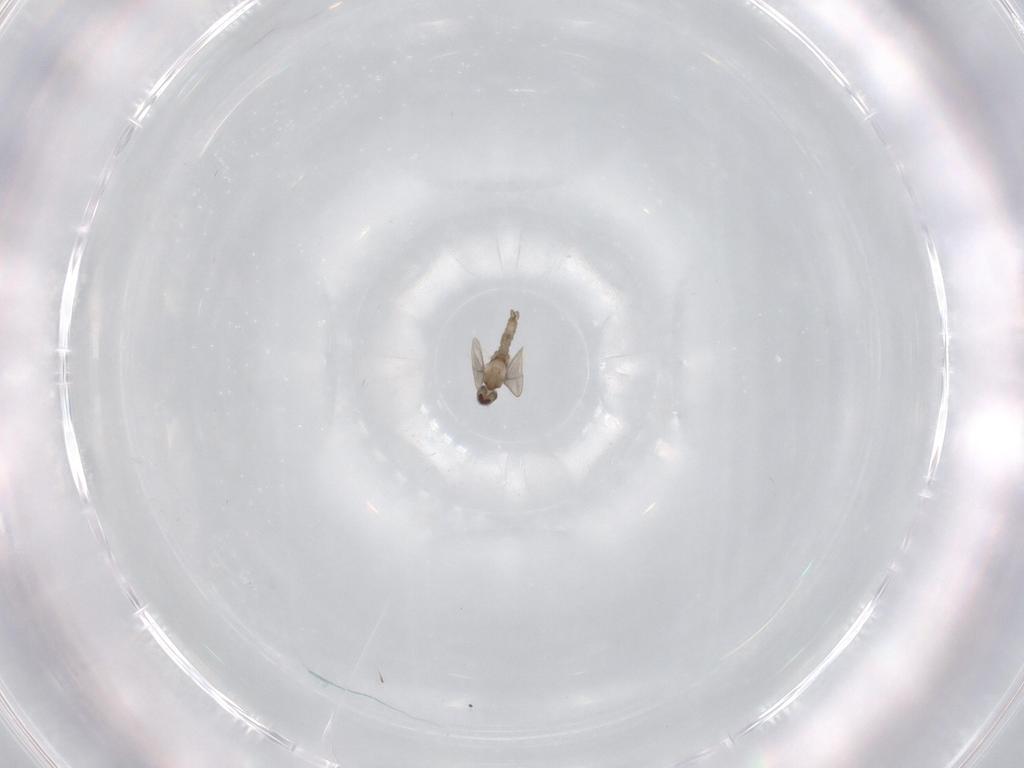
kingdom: Animalia
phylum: Arthropoda
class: Insecta
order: Diptera
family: Cecidomyiidae
